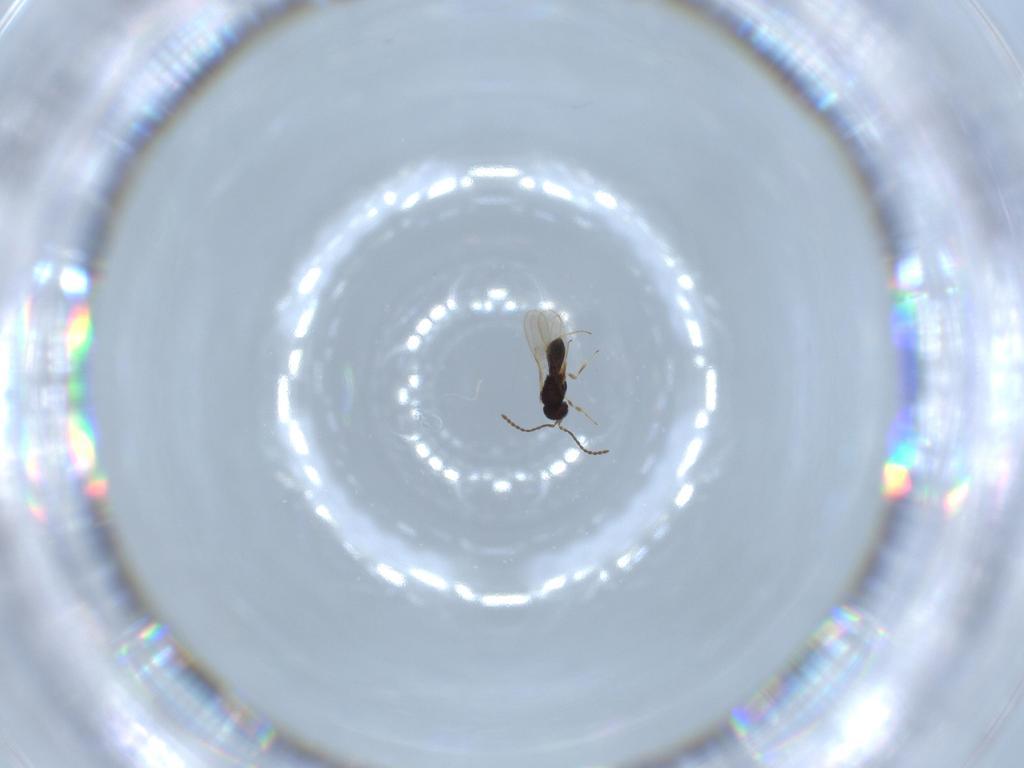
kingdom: Animalia
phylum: Arthropoda
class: Insecta
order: Hymenoptera
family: Scelionidae
